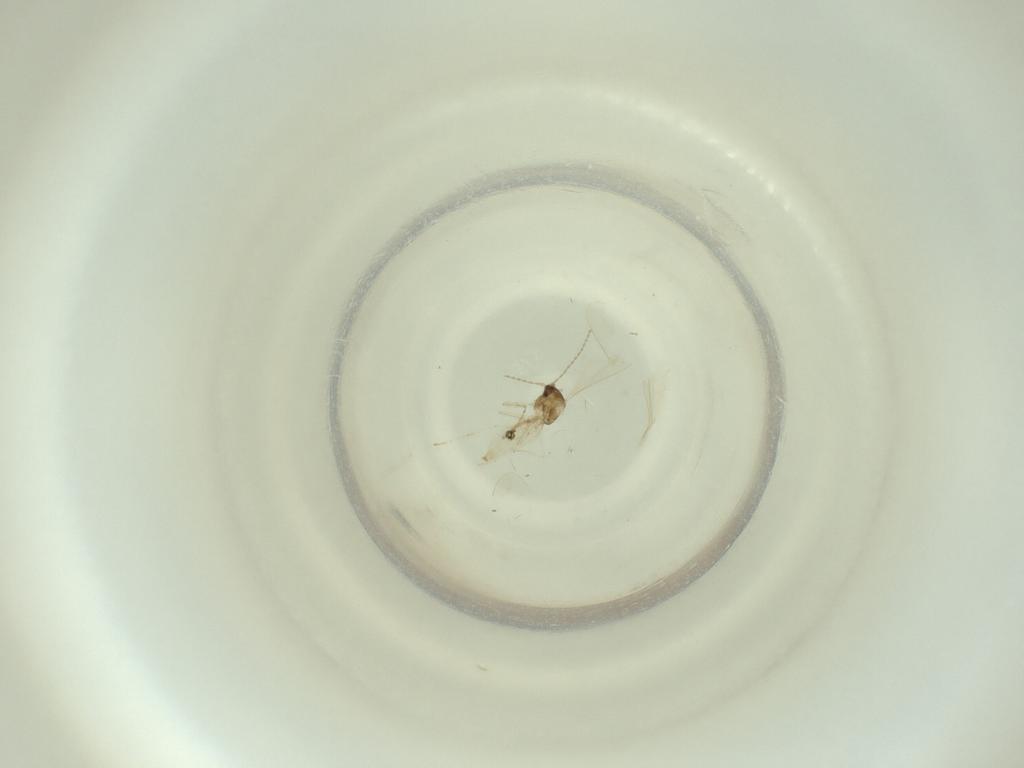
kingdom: Animalia
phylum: Arthropoda
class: Insecta
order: Diptera
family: Cecidomyiidae
